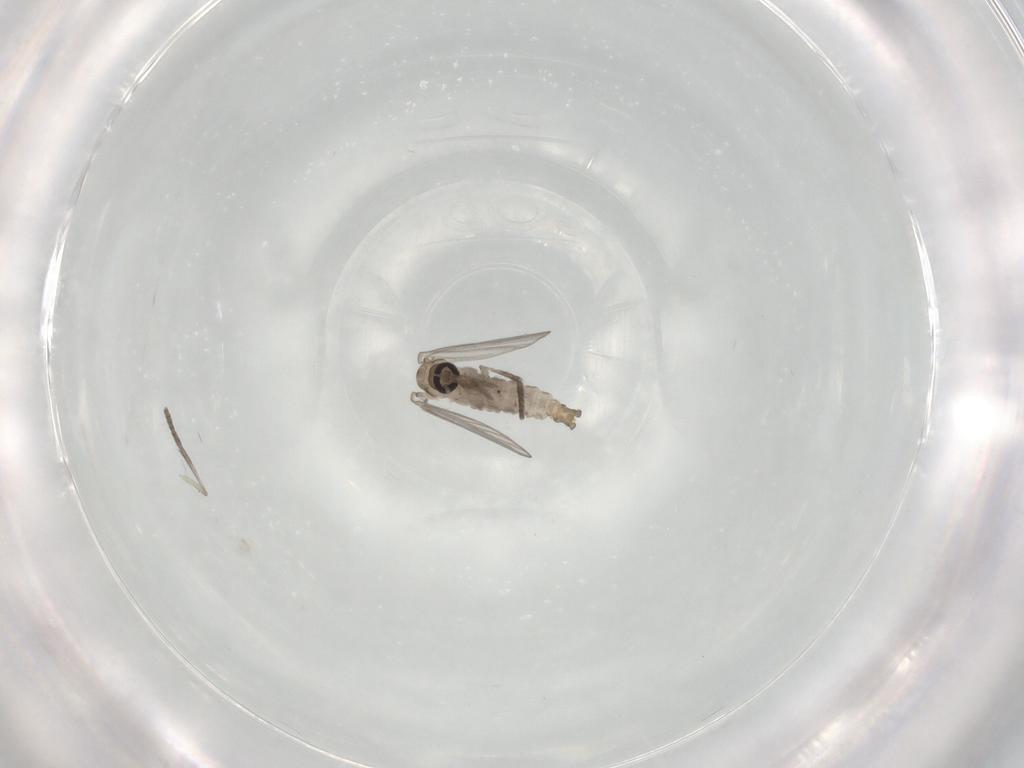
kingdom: Animalia
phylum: Arthropoda
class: Insecta
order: Diptera
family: Psychodidae
